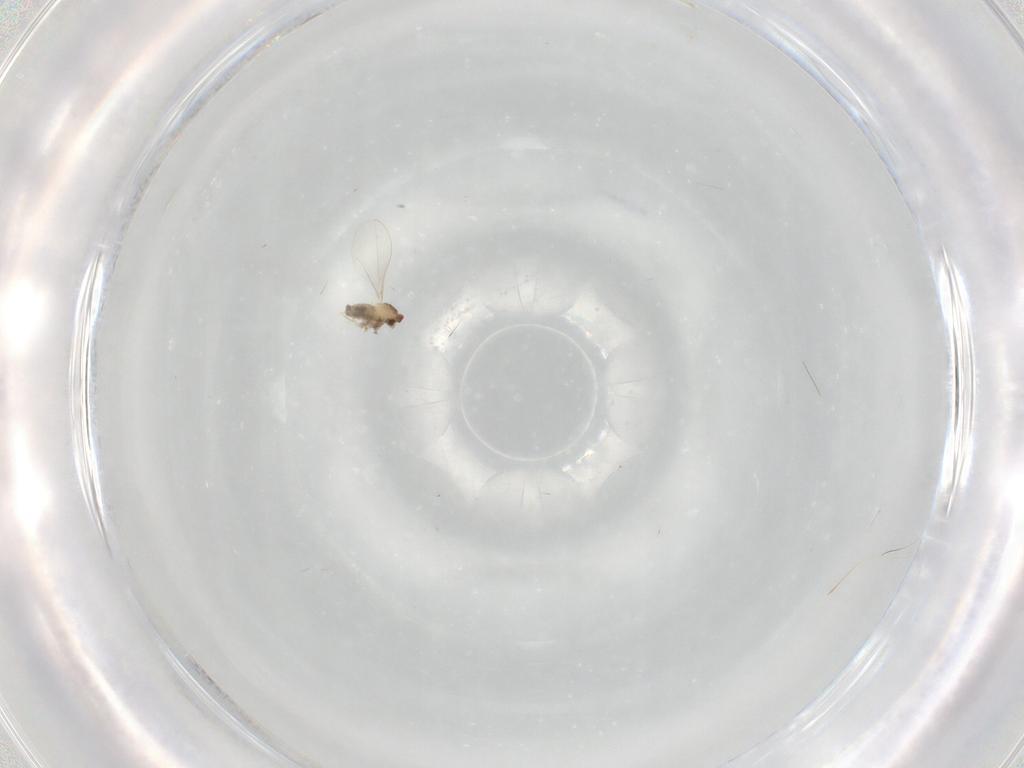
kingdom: Animalia
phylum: Arthropoda
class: Insecta
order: Diptera
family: Cecidomyiidae
